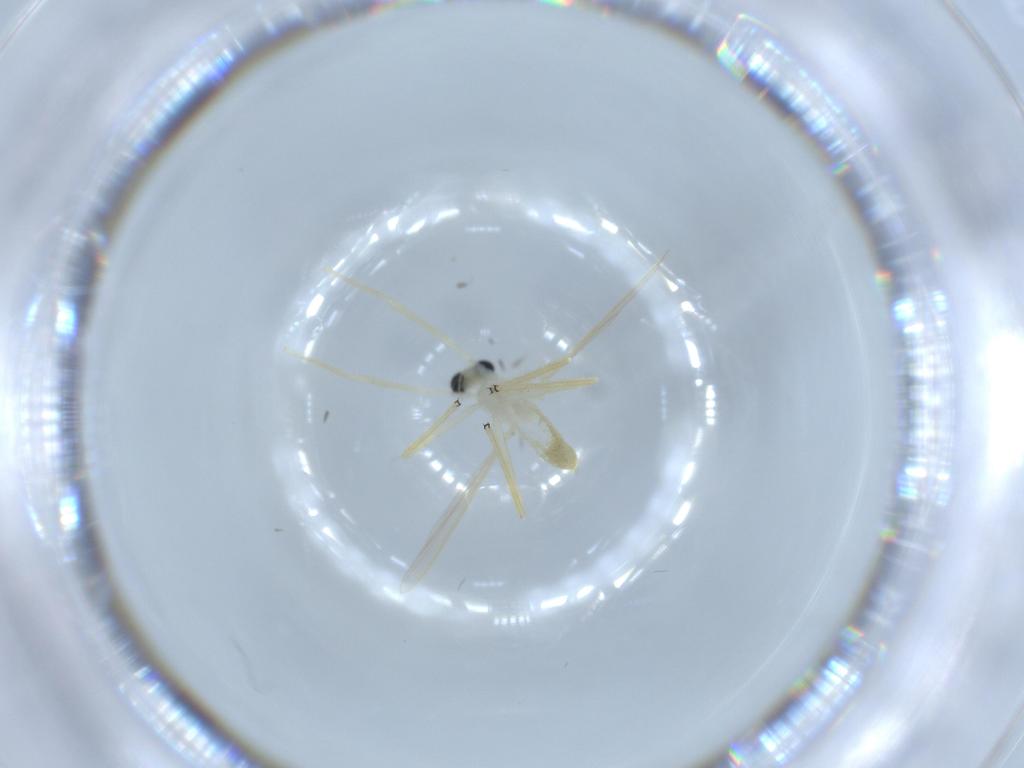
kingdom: Animalia
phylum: Arthropoda
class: Insecta
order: Diptera
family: Chironomidae
